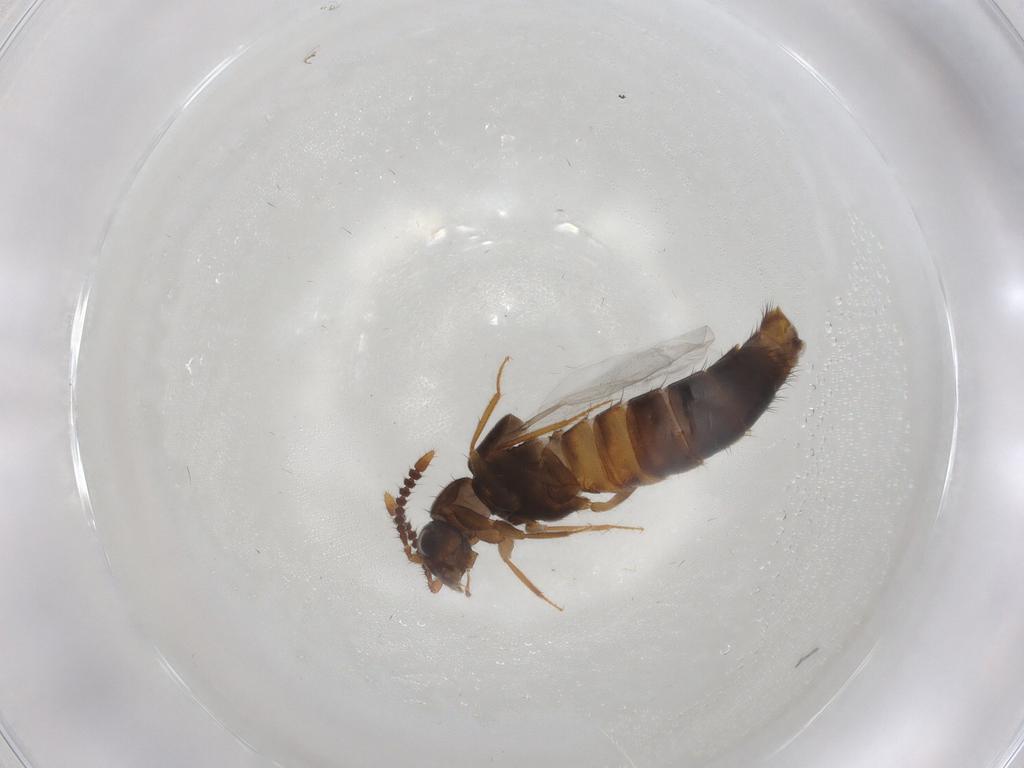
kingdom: Animalia
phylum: Arthropoda
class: Insecta
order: Coleoptera
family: Staphylinidae
